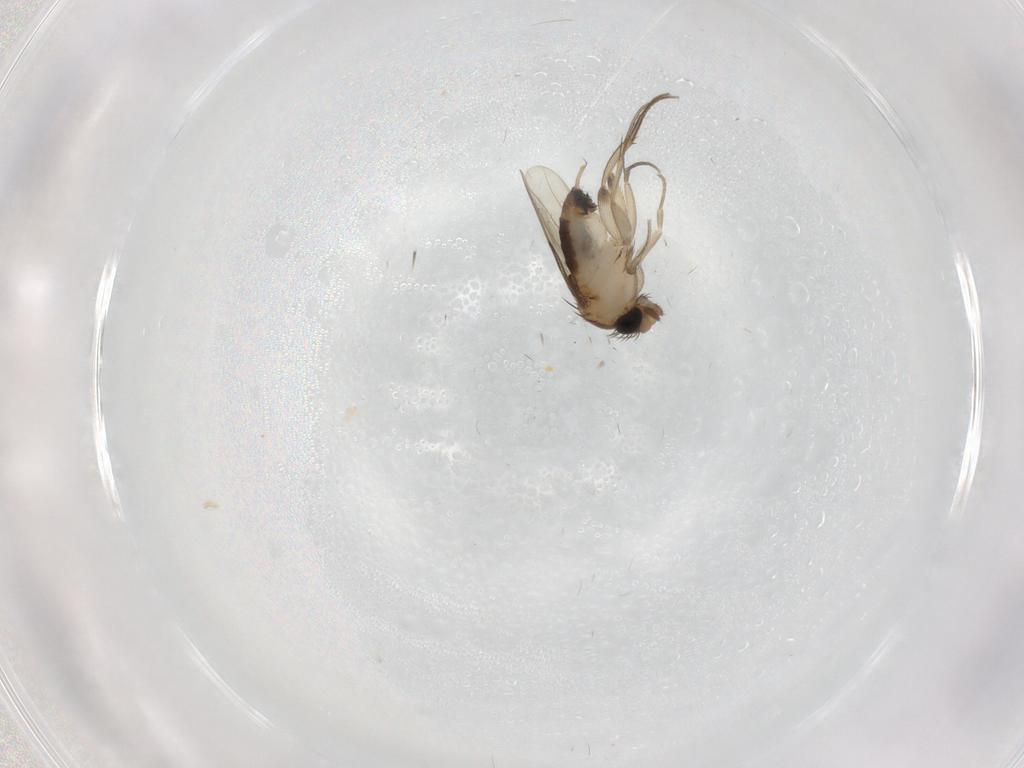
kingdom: Animalia
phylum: Arthropoda
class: Insecta
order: Diptera
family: Phoridae
